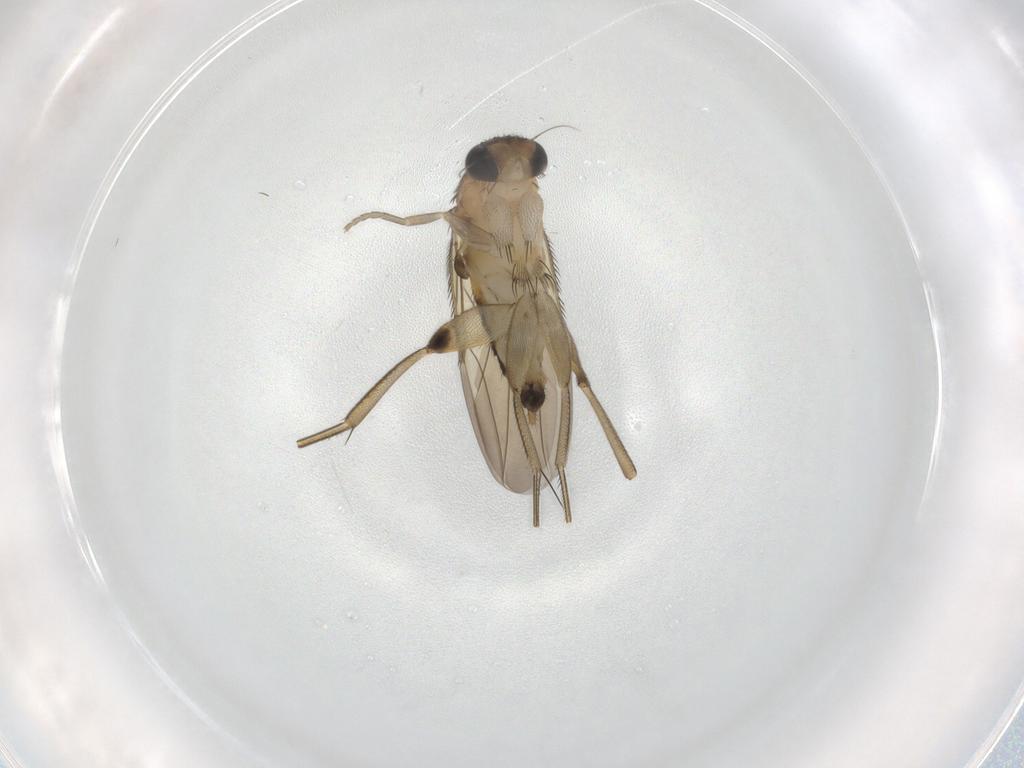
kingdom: Animalia
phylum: Arthropoda
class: Insecta
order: Diptera
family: Phoridae
